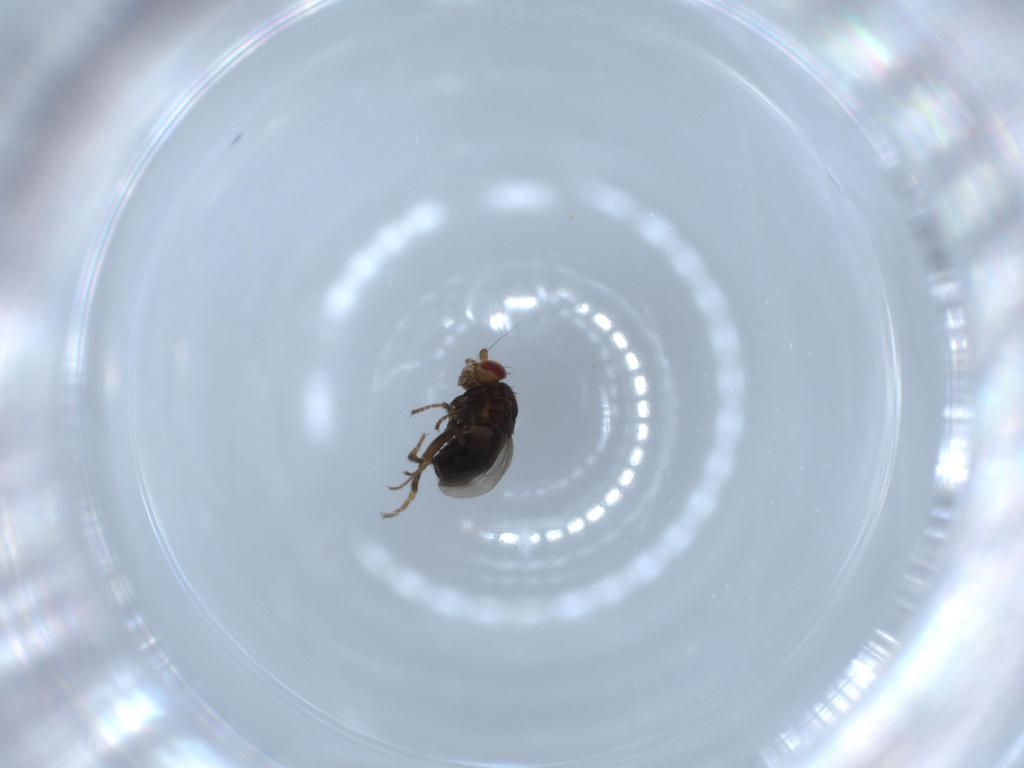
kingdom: Animalia
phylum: Arthropoda
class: Insecta
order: Diptera
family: Sphaeroceridae
